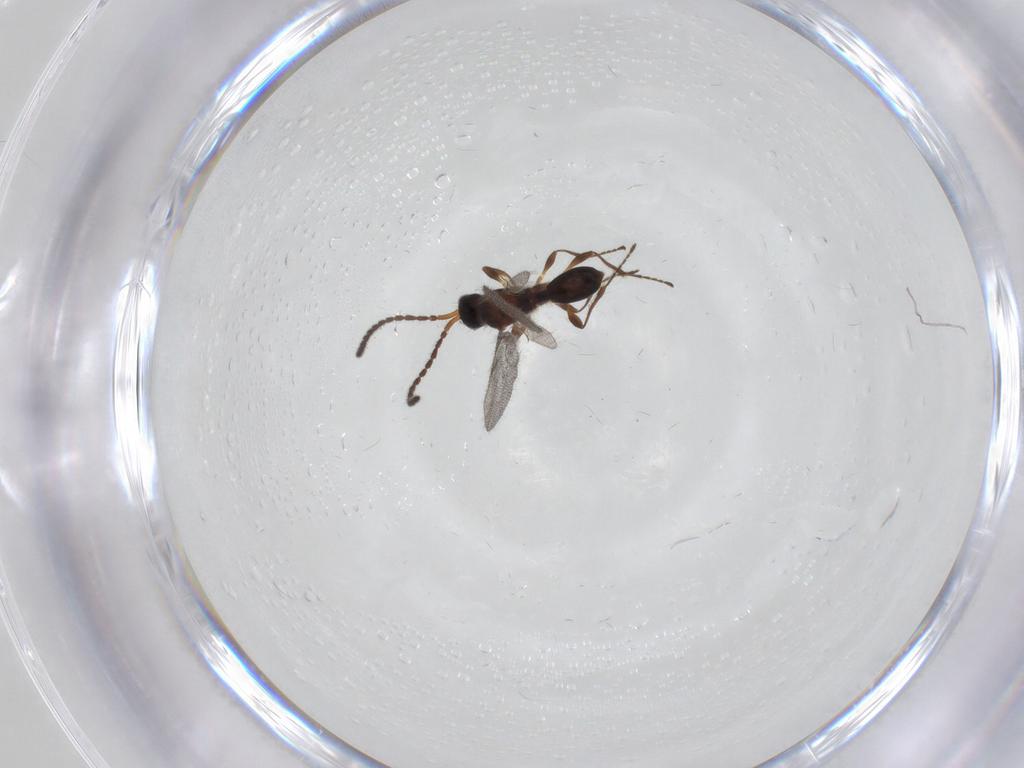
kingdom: Animalia
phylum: Arthropoda
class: Insecta
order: Hymenoptera
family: Diapriidae
